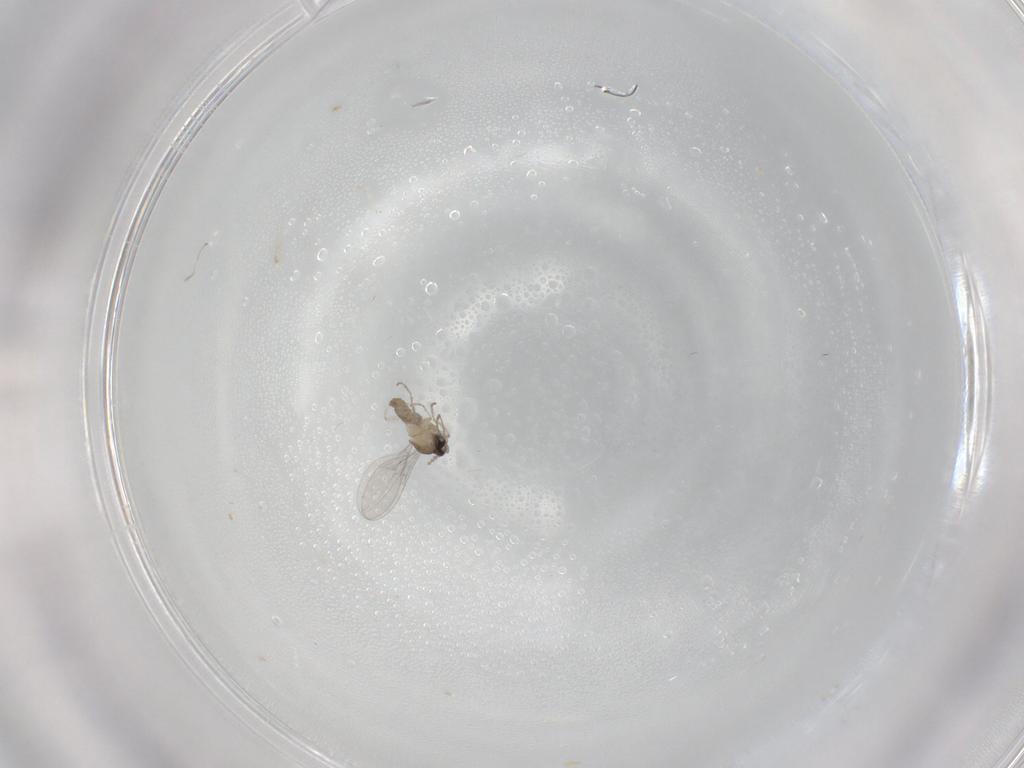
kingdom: Animalia
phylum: Arthropoda
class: Insecta
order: Diptera
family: Cecidomyiidae
